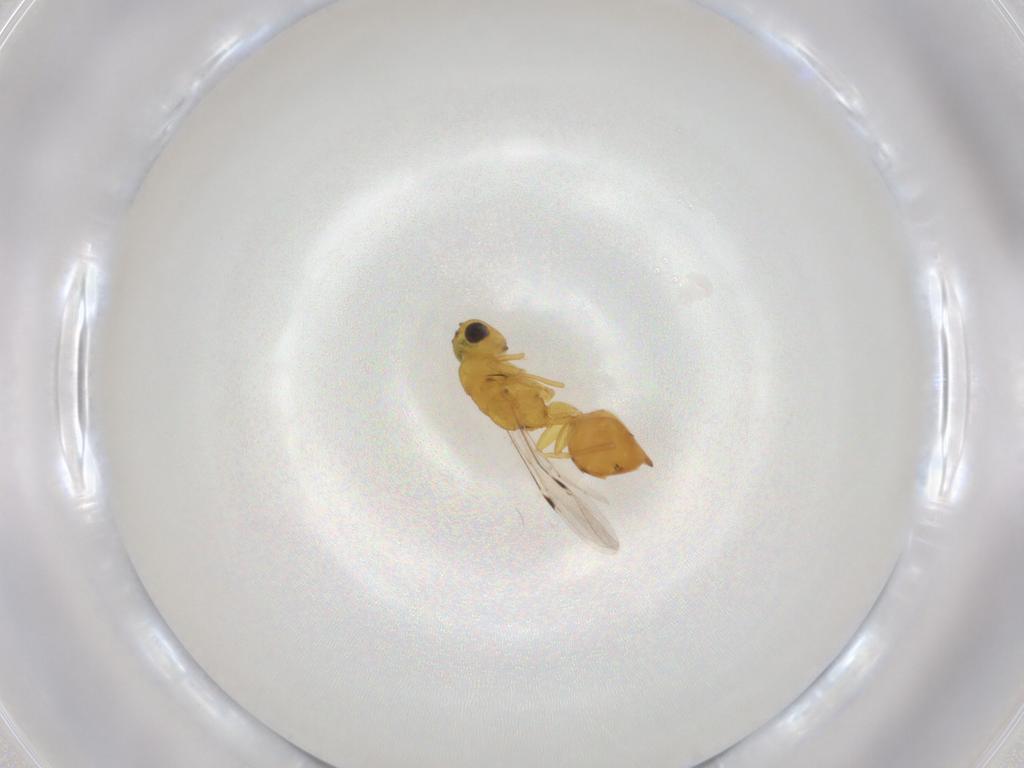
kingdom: Animalia
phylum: Arthropoda
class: Insecta
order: Hymenoptera
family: Eurytomidae
